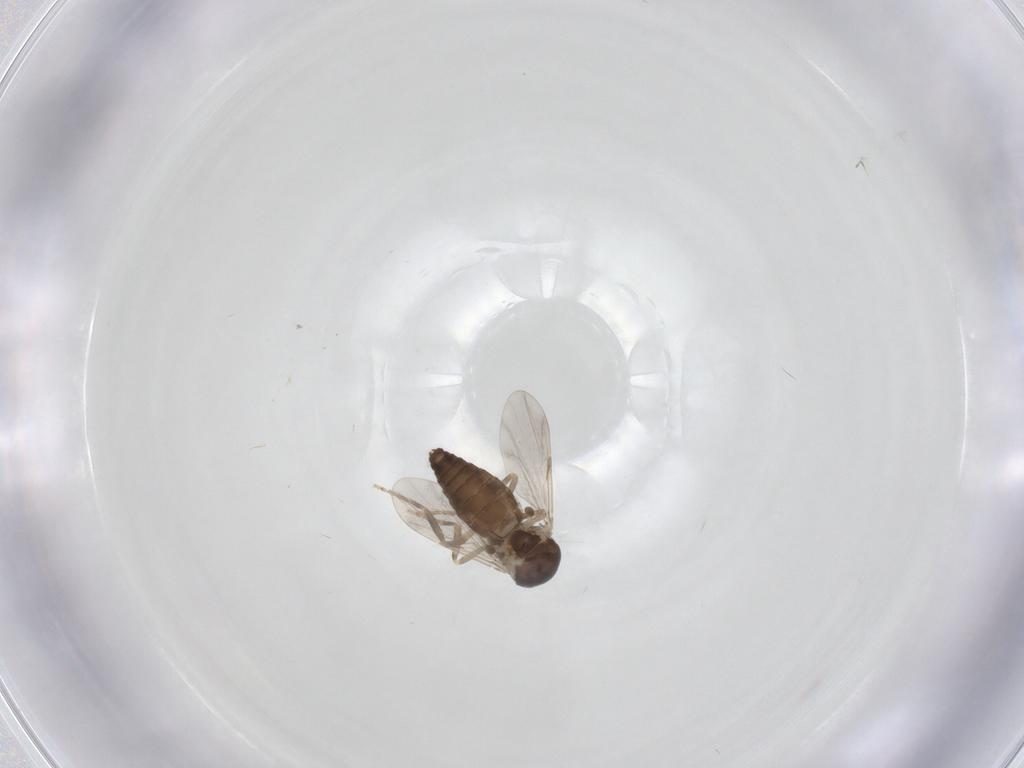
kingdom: Animalia
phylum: Arthropoda
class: Insecta
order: Diptera
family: Ceratopogonidae
